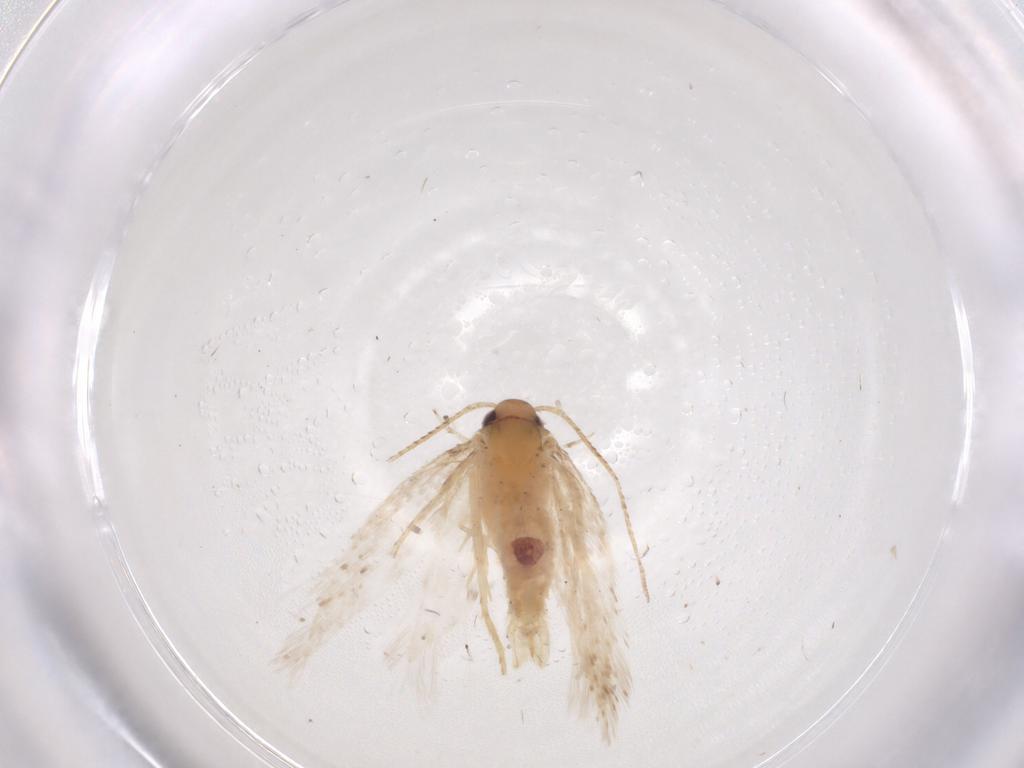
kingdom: Animalia
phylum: Arthropoda
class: Insecta
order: Lepidoptera
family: Gelechiidae
